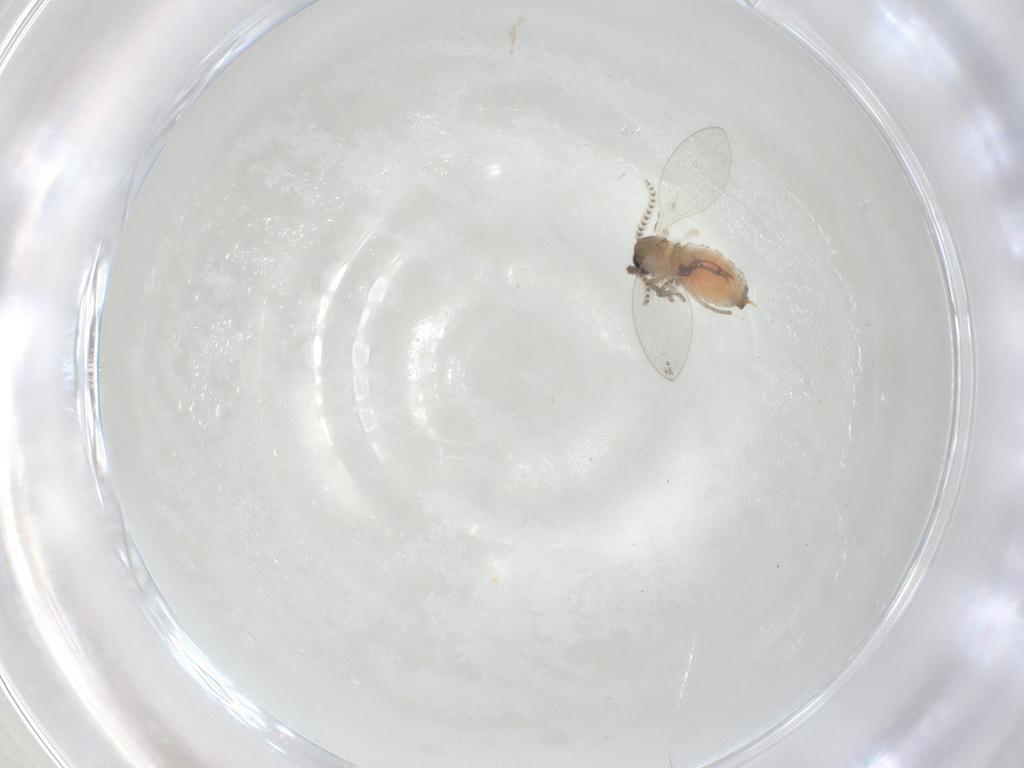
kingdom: Animalia
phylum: Arthropoda
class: Insecta
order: Diptera
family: Psychodidae
